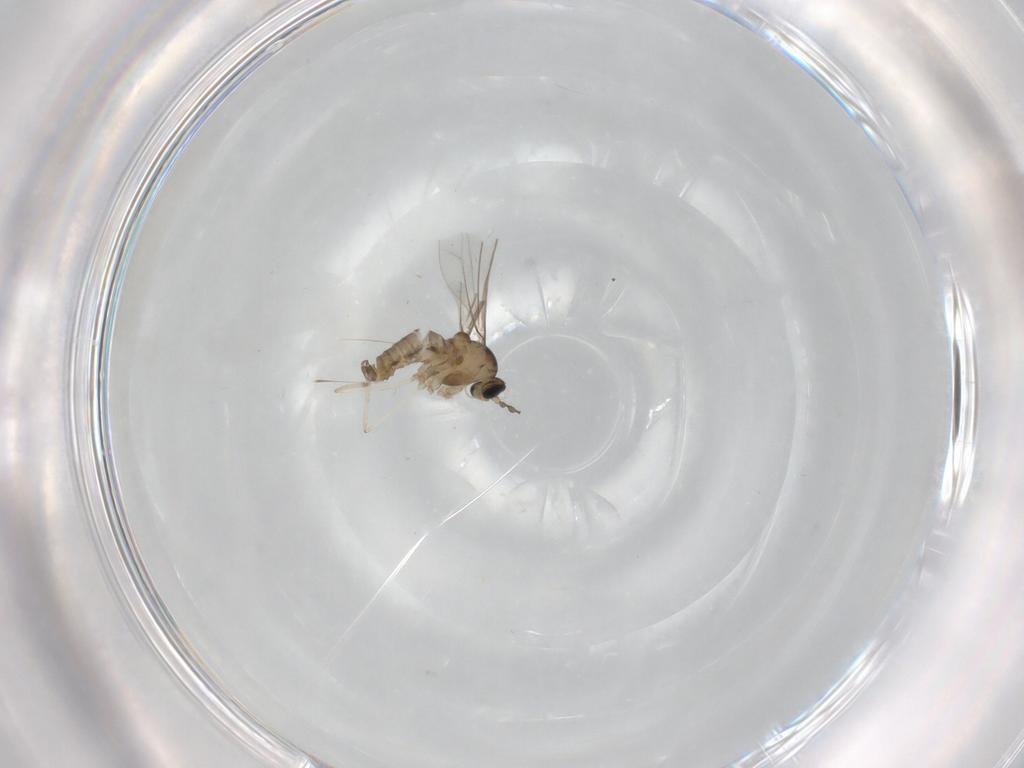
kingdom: Animalia
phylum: Arthropoda
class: Insecta
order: Diptera
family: Cecidomyiidae
